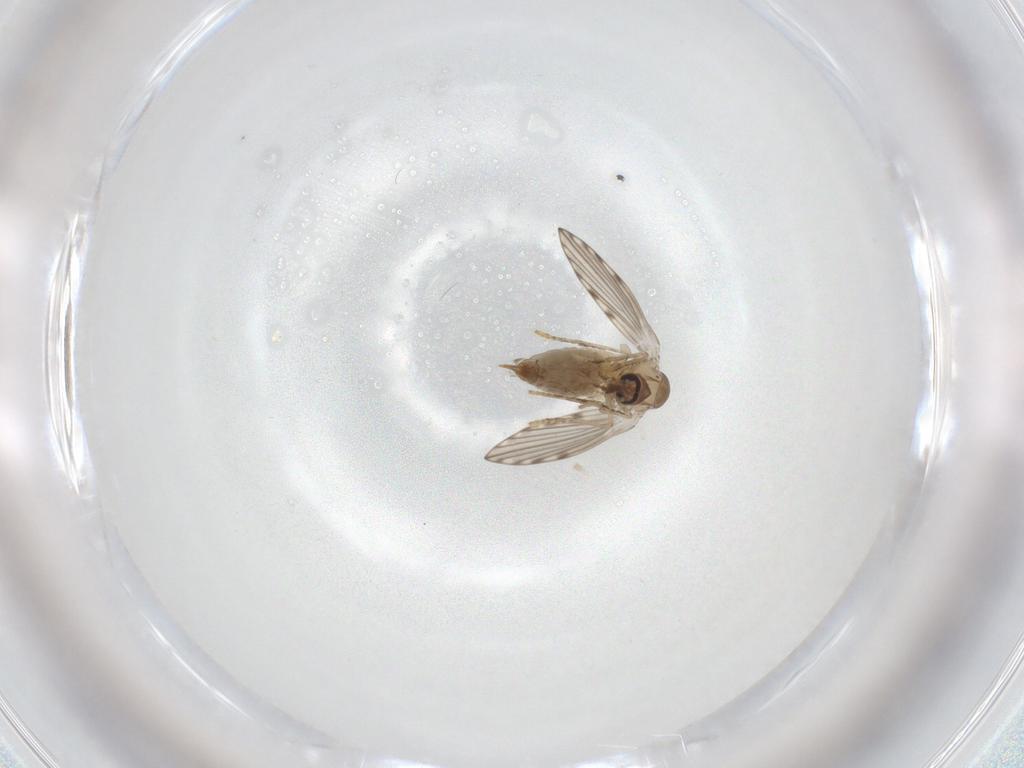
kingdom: Animalia
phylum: Arthropoda
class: Insecta
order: Diptera
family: Psychodidae
